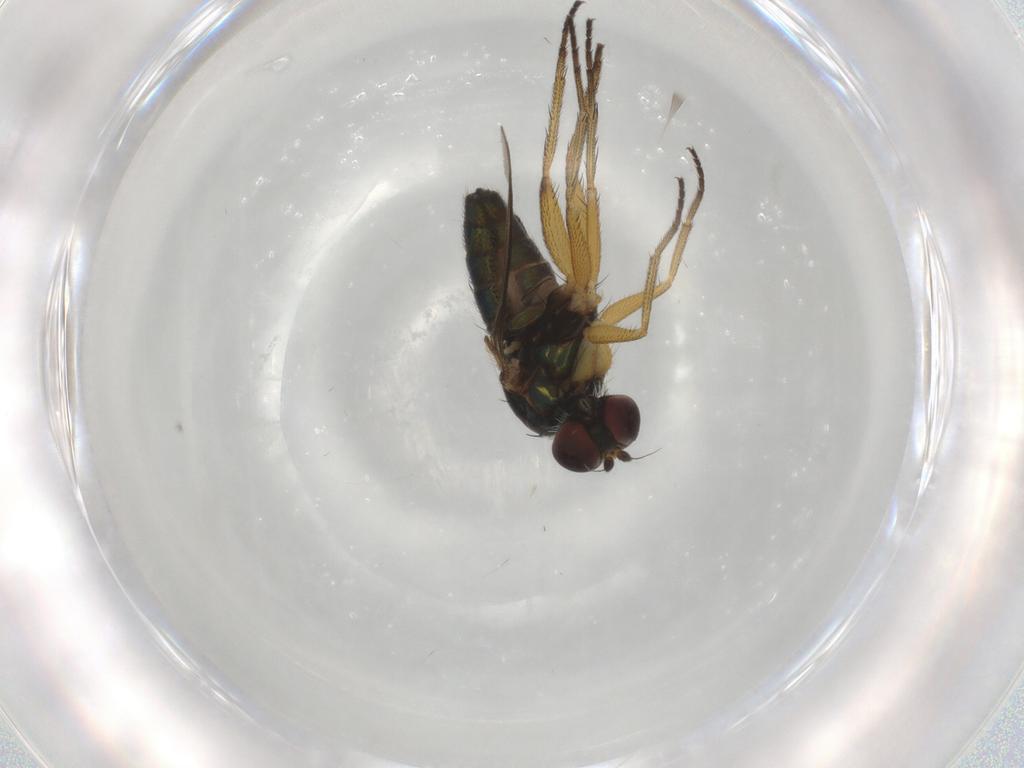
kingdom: Animalia
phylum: Arthropoda
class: Insecta
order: Diptera
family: Dolichopodidae
